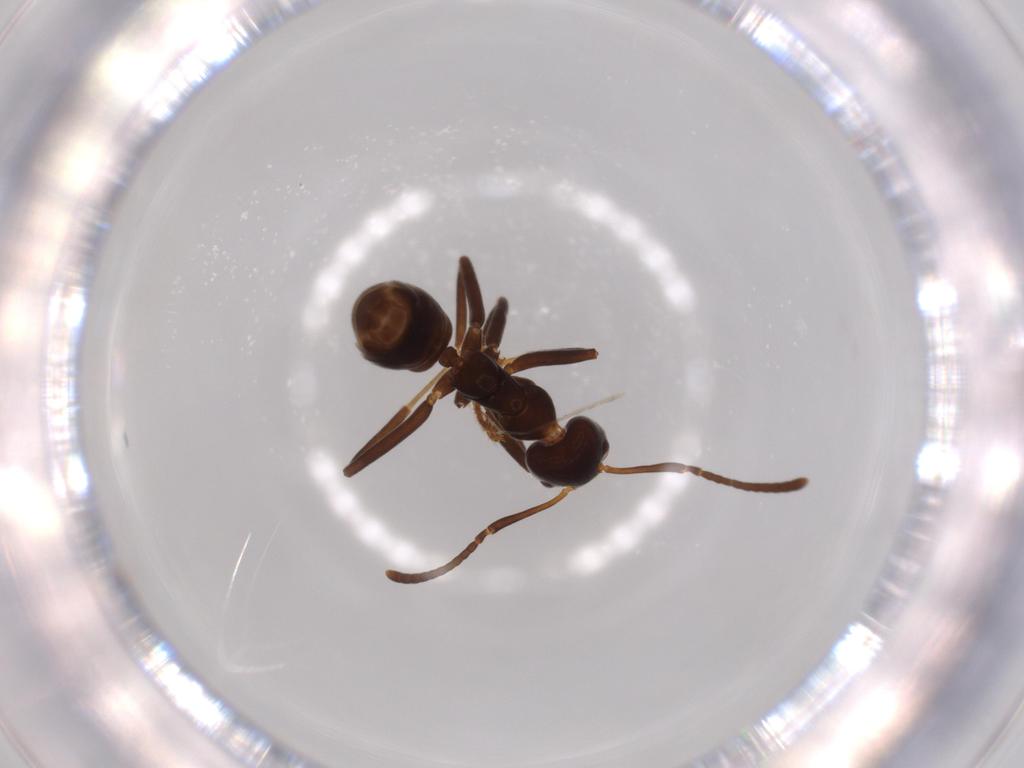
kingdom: Animalia
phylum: Arthropoda
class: Insecta
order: Hymenoptera
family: Formicidae
